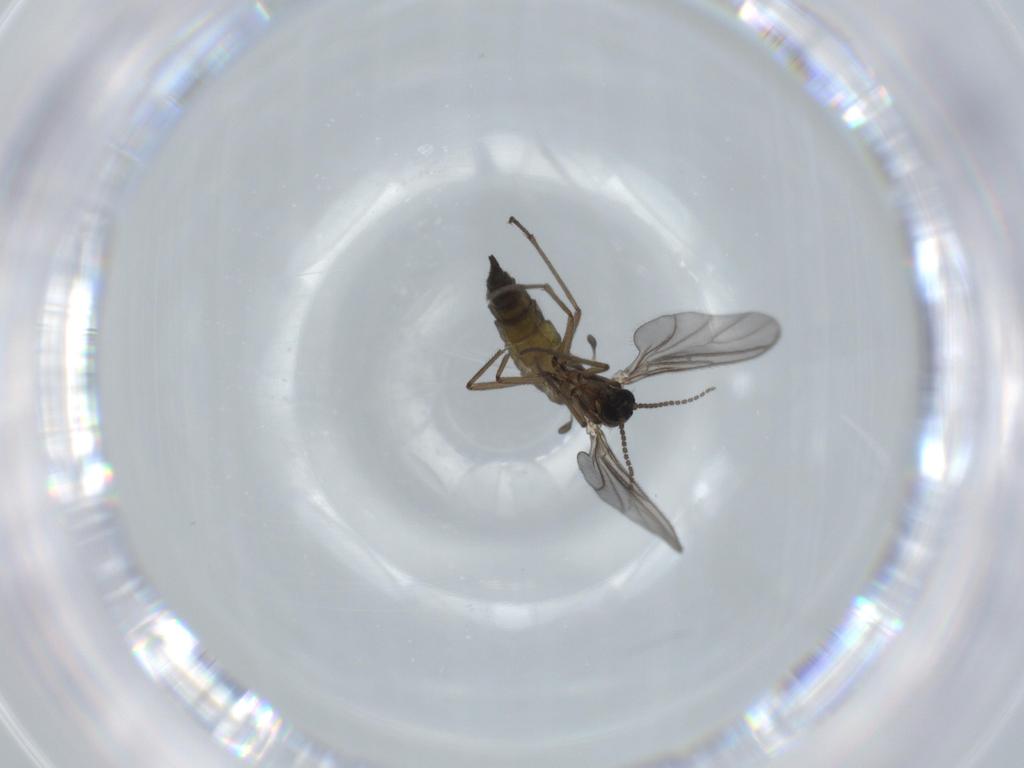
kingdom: Animalia
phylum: Arthropoda
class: Insecta
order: Diptera
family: Sciaridae
